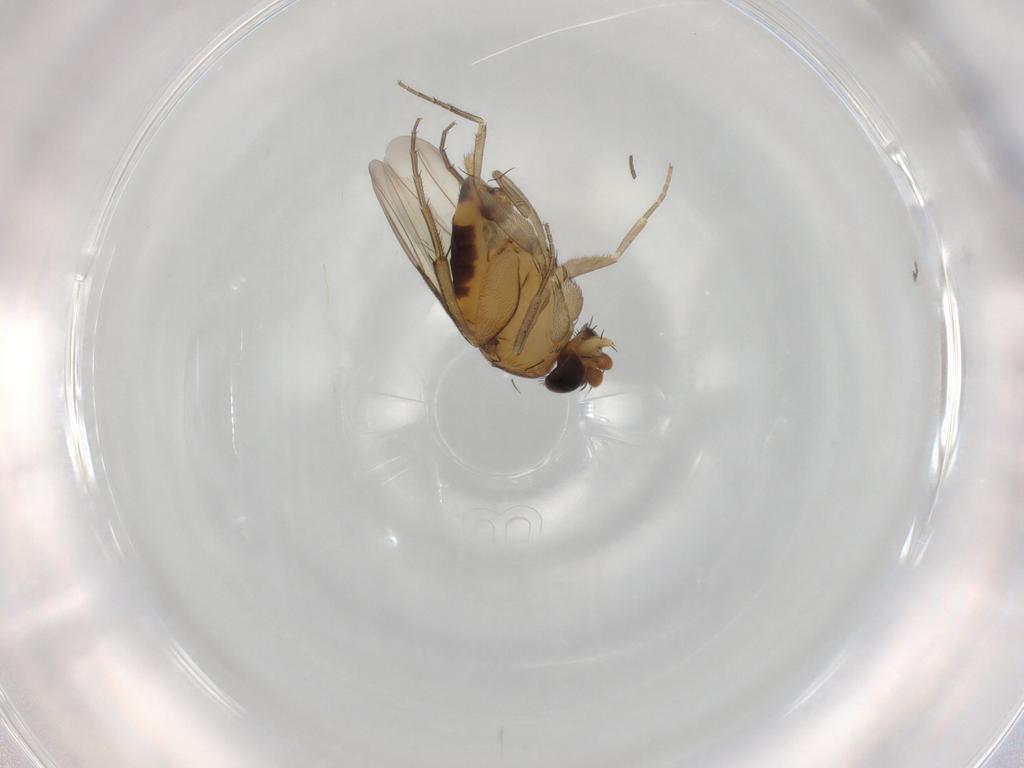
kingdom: Animalia
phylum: Arthropoda
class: Insecta
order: Diptera
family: Phoridae
